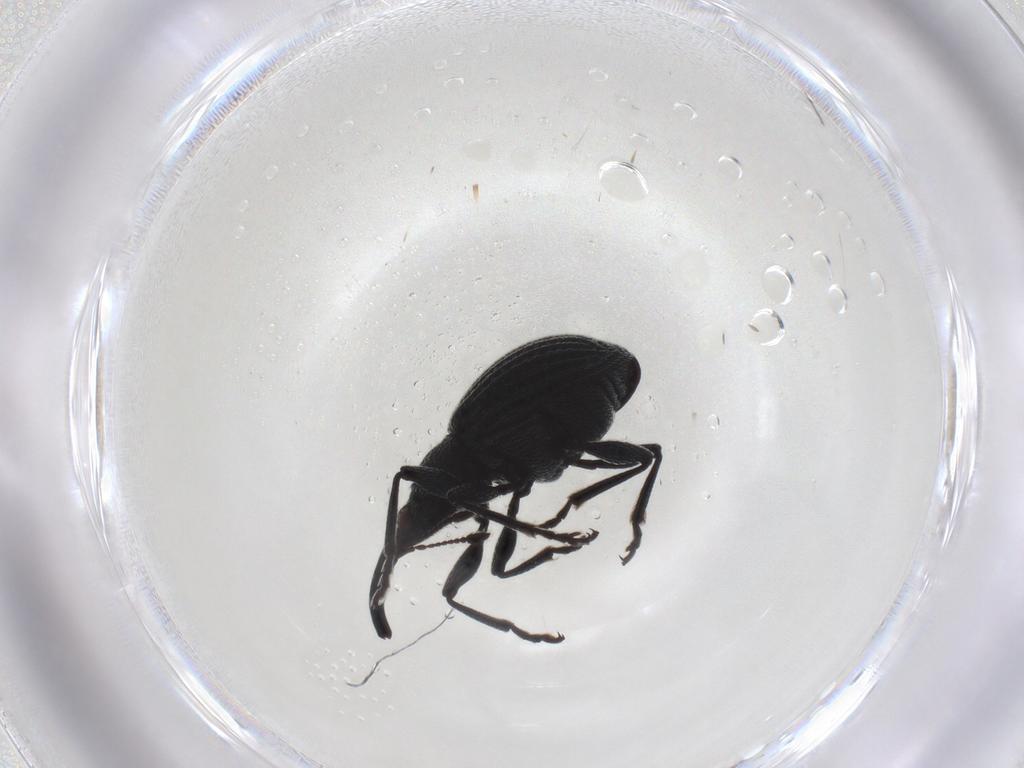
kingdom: Animalia
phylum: Arthropoda
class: Insecta
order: Coleoptera
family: Brentidae
